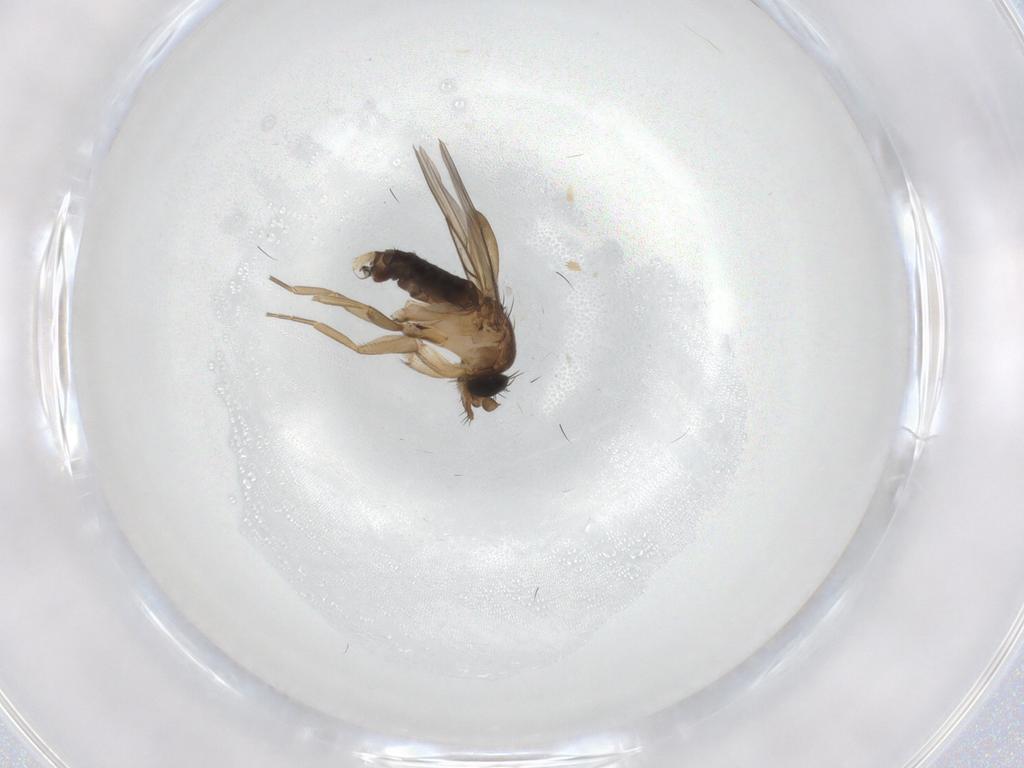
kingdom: Animalia
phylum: Arthropoda
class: Insecta
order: Diptera
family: Phoridae
